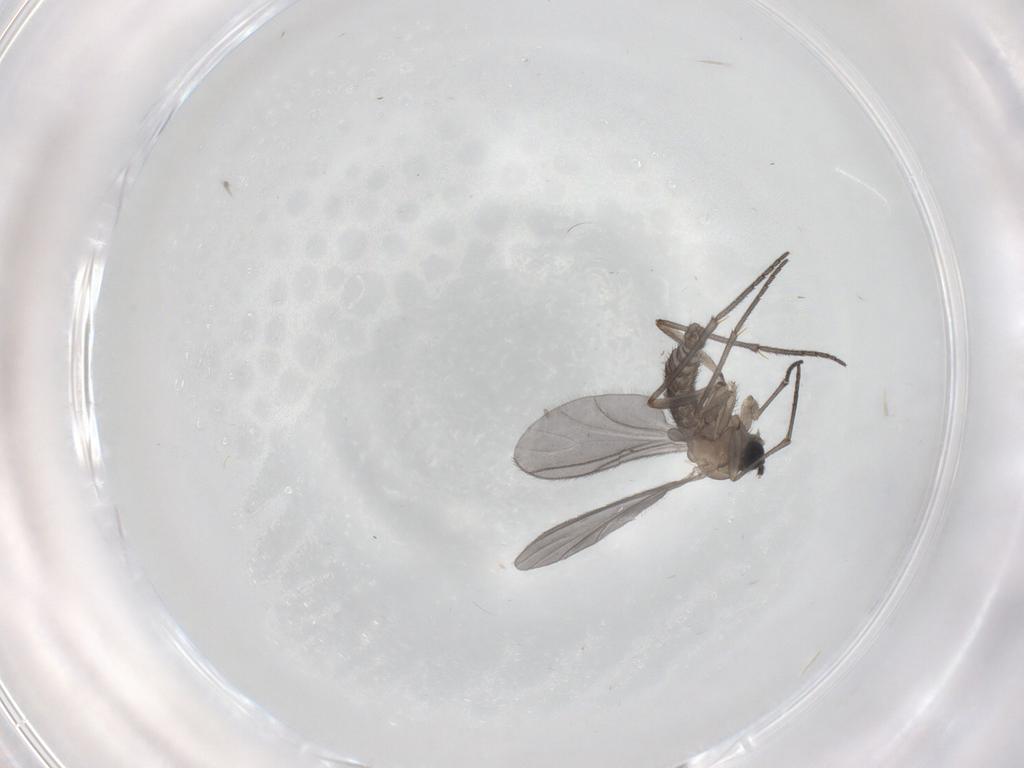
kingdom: Animalia
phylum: Arthropoda
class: Insecta
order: Diptera
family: Sciaridae
